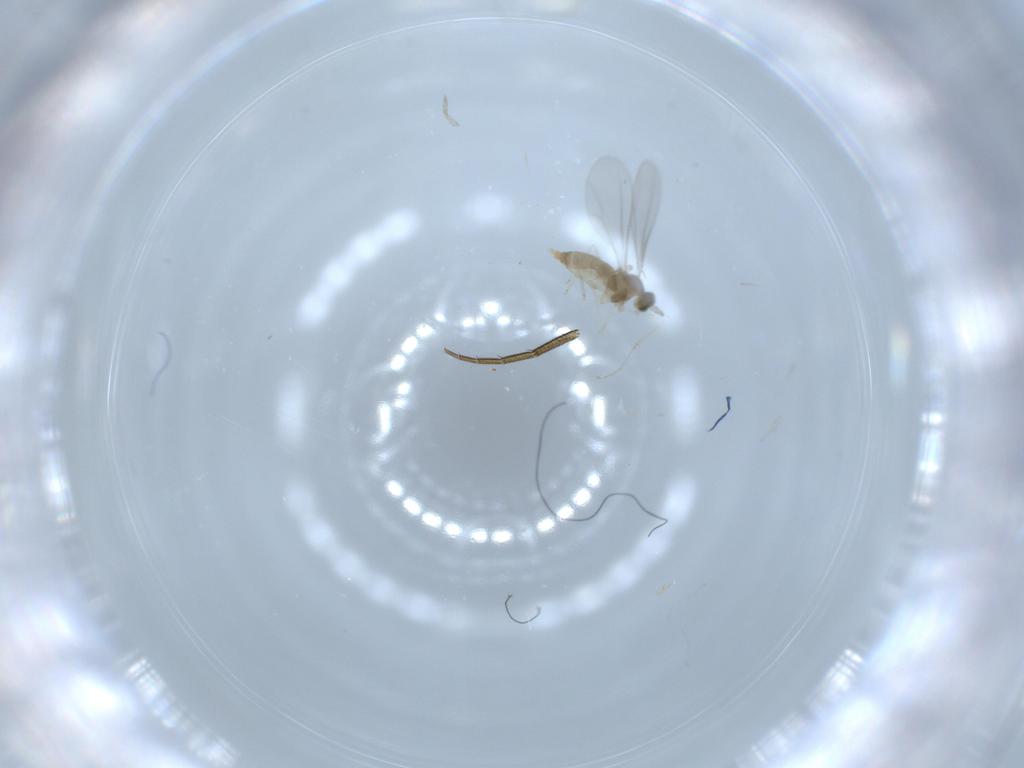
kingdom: Animalia
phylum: Arthropoda
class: Insecta
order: Diptera
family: Cecidomyiidae
